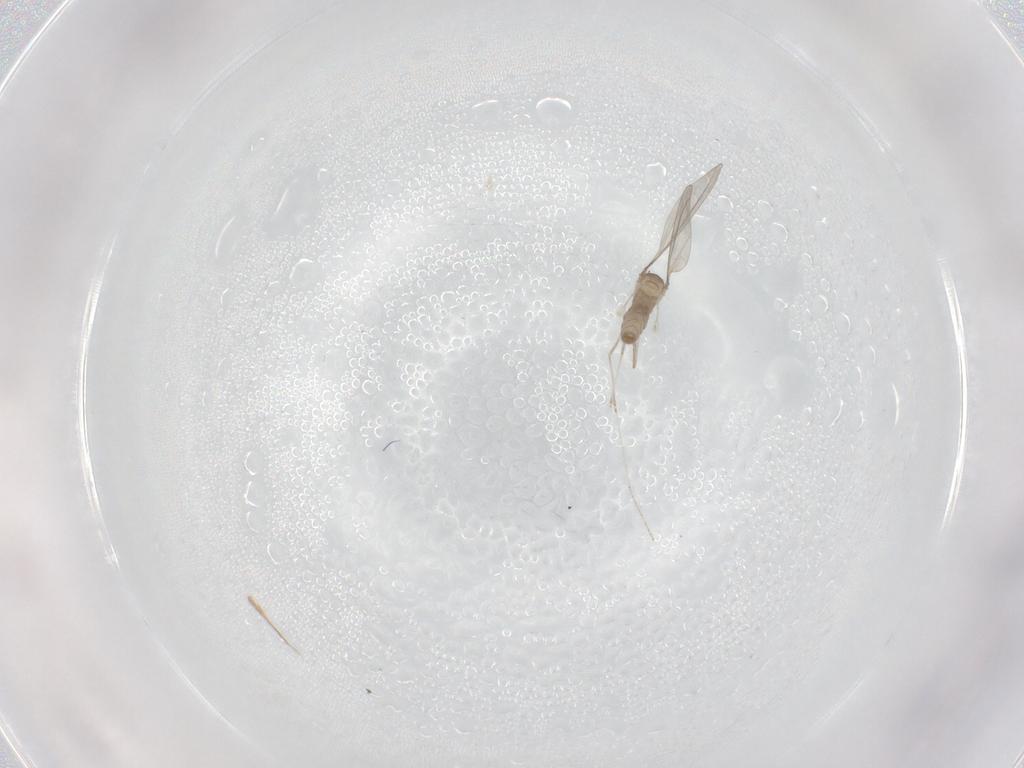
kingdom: Animalia
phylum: Arthropoda
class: Insecta
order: Diptera
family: Cecidomyiidae
